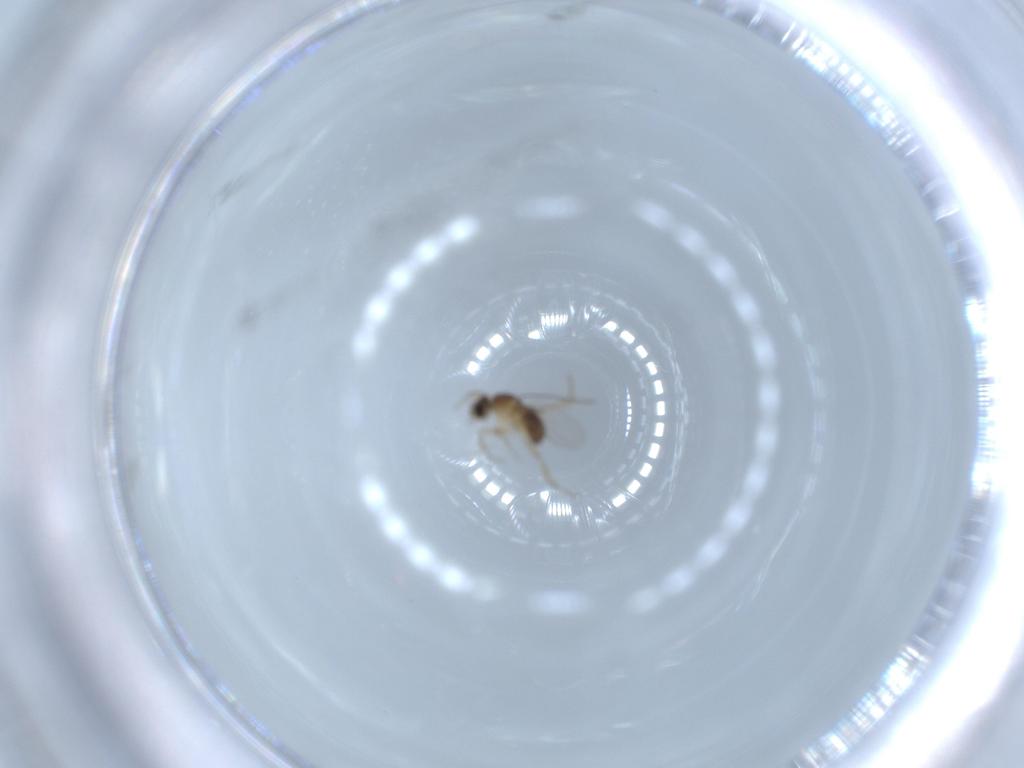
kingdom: Animalia
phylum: Arthropoda
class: Insecta
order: Diptera
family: Phoridae
